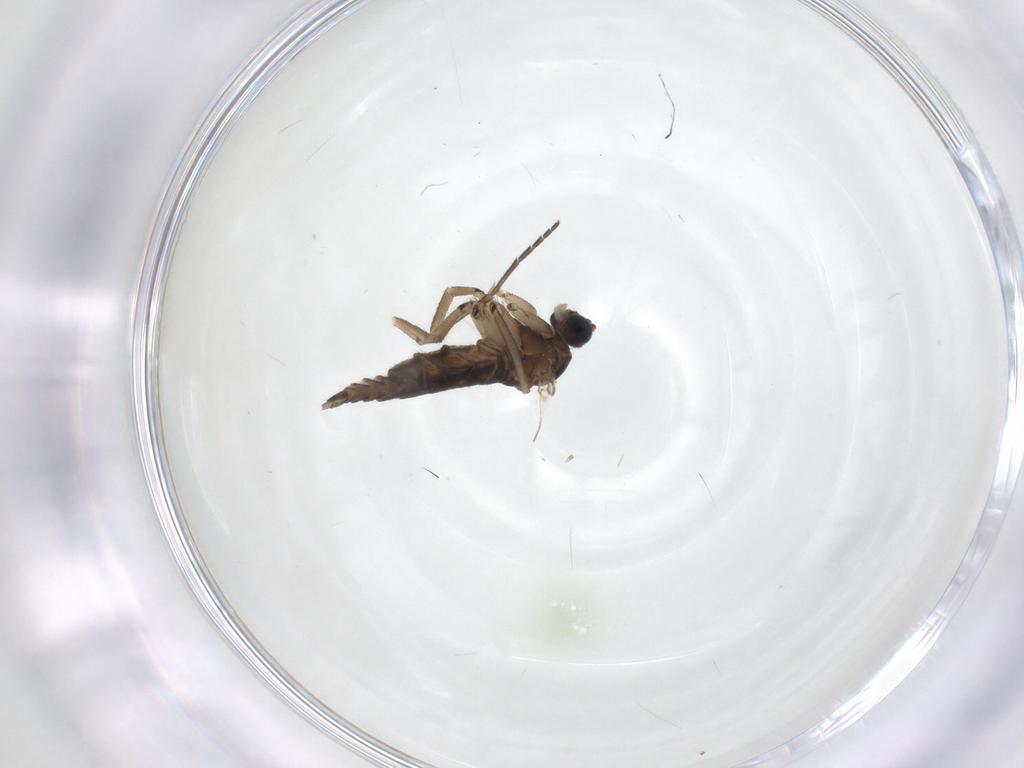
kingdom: Animalia
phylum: Arthropoda
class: Insecta
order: Diptera
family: Sciaridae
